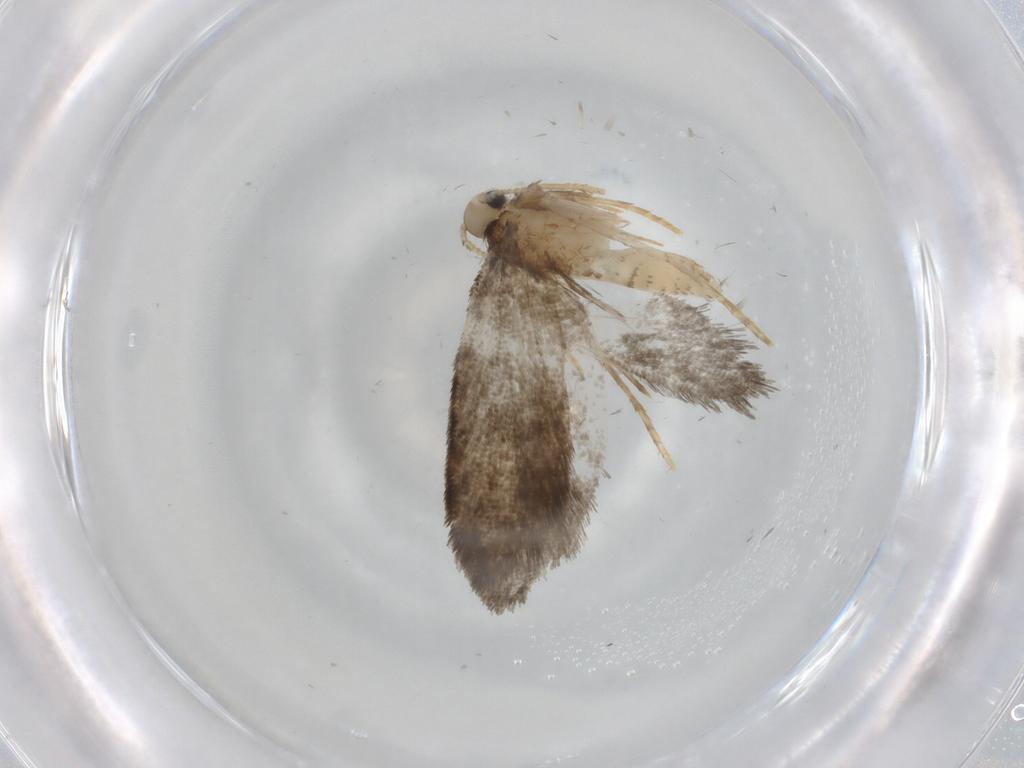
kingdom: Animalia
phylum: Arthropoda
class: Insecta
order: Lepidoptera
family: Psychidae
